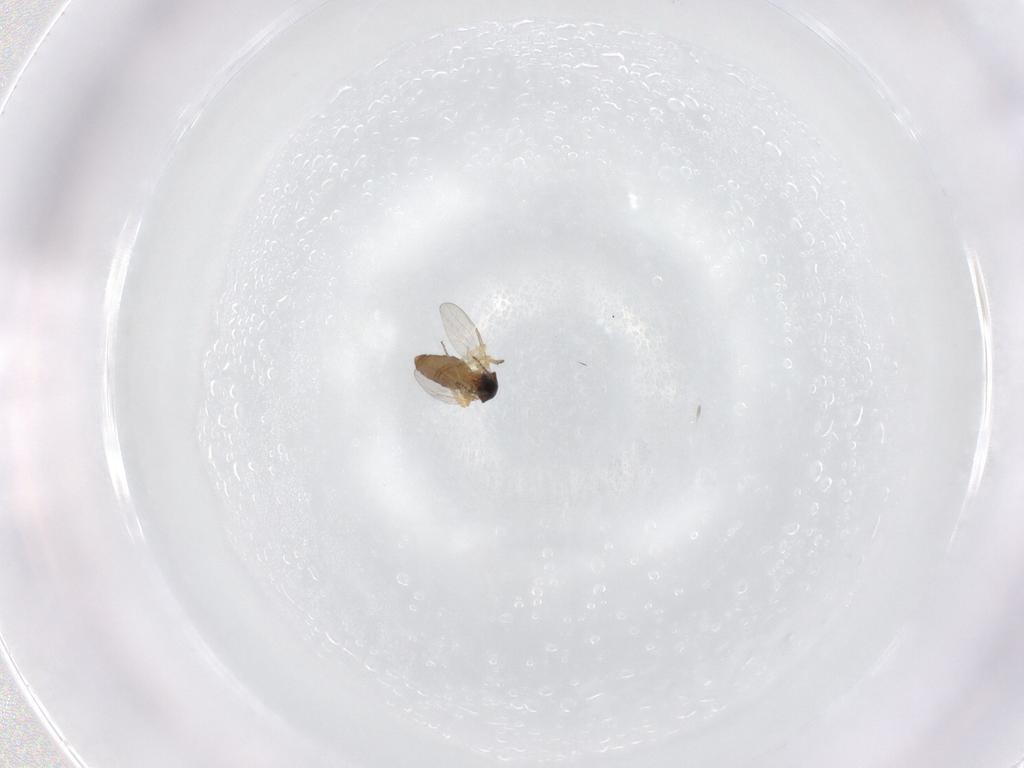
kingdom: Animalia
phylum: Arthropoda
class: Insecta
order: Diptera
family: Ceratopogonidae
